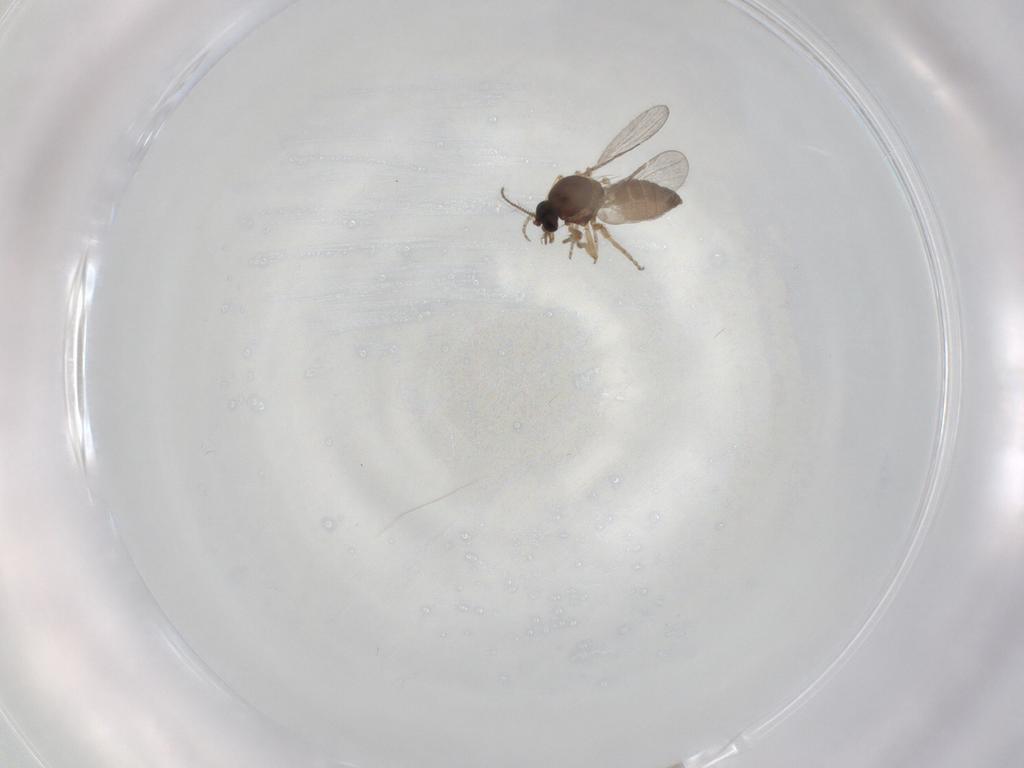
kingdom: Animalia
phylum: Arthropoda
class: Insecta
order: Diptera
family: Ceratopogonidae
